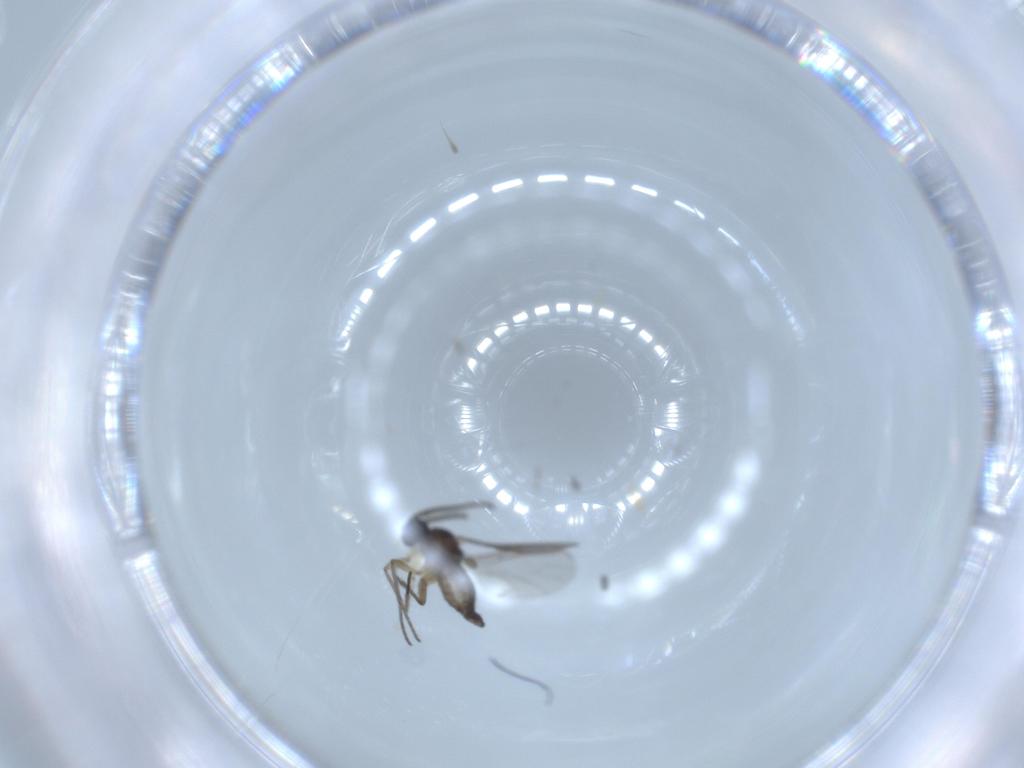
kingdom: Animalia
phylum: Arthropoda
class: Insecta
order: Diptera
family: Sciaridae
